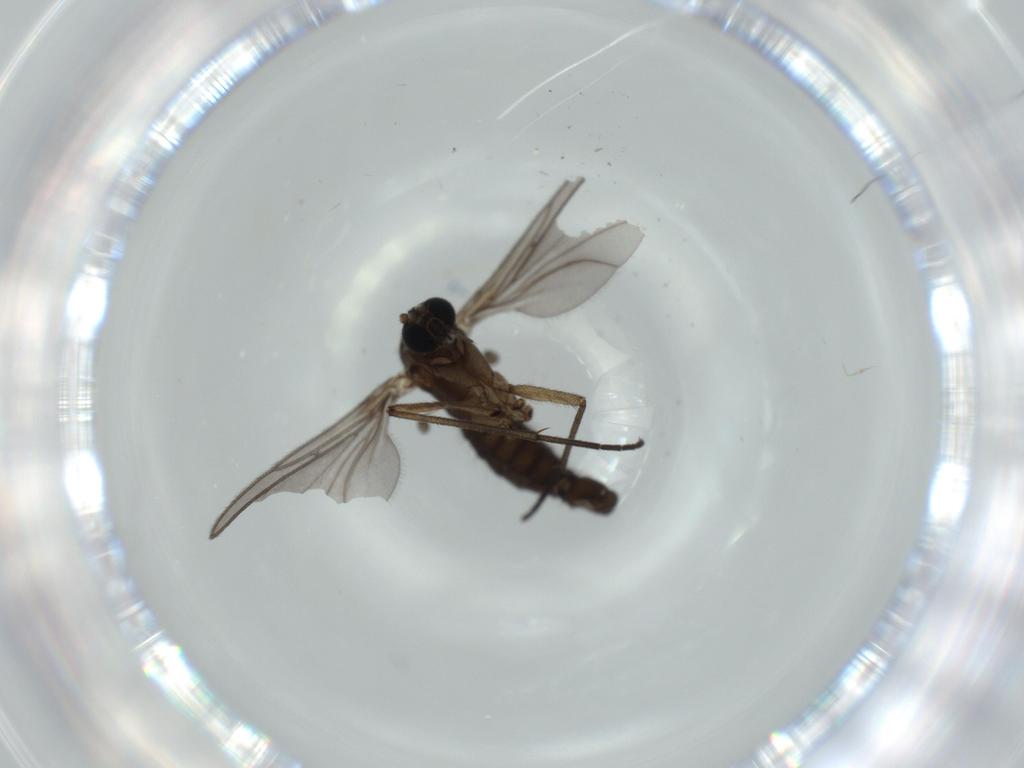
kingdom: Animalia
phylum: Arthropoda
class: Insecta
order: Diptera
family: Sciaridae
